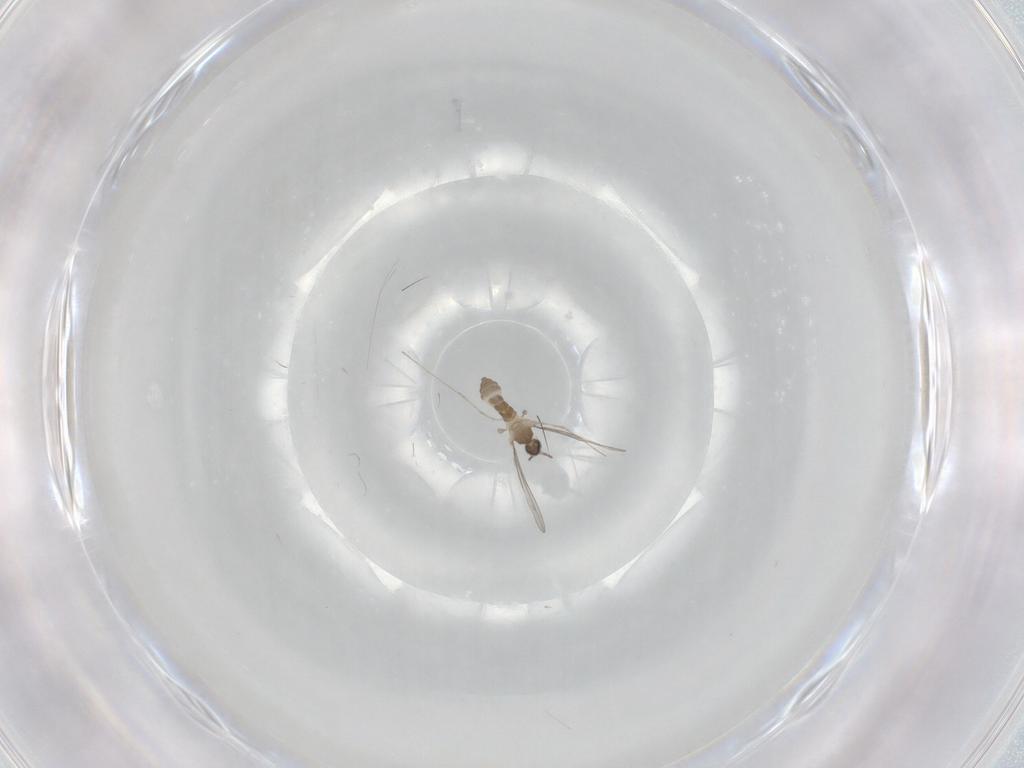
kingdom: Animalia
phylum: Arthropoda
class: Insecta
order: Diptera
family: Cecidomyiidae
